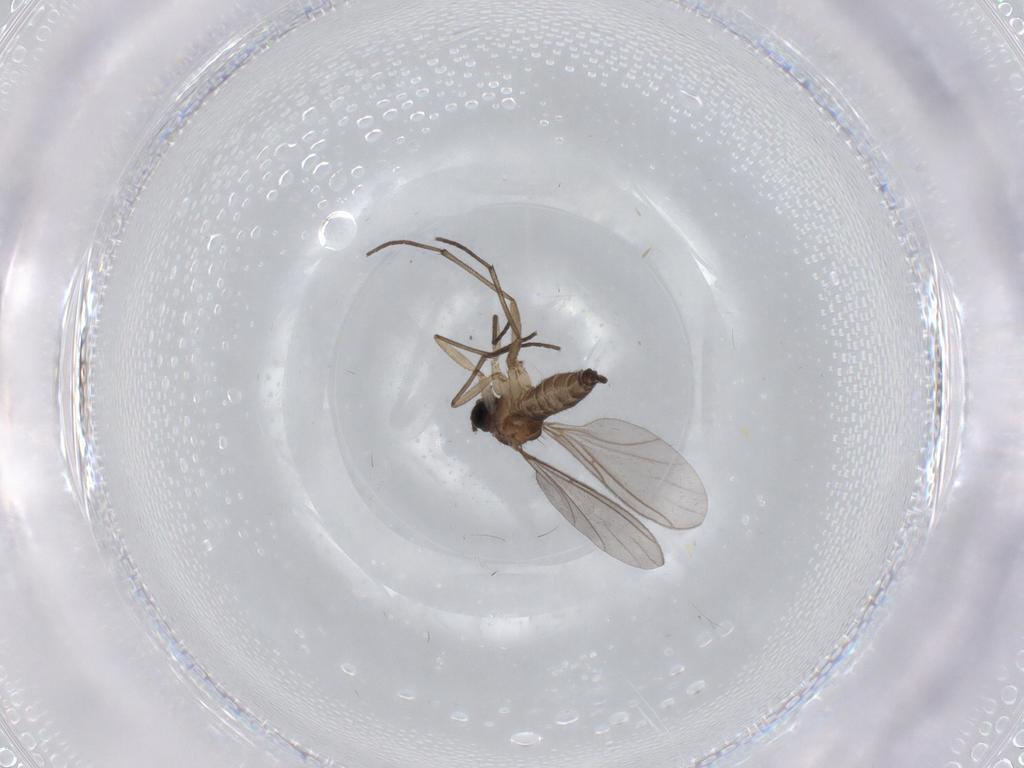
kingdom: Animalia
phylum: Arthropoda
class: Insecta
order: Diptera
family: Sciaridae
